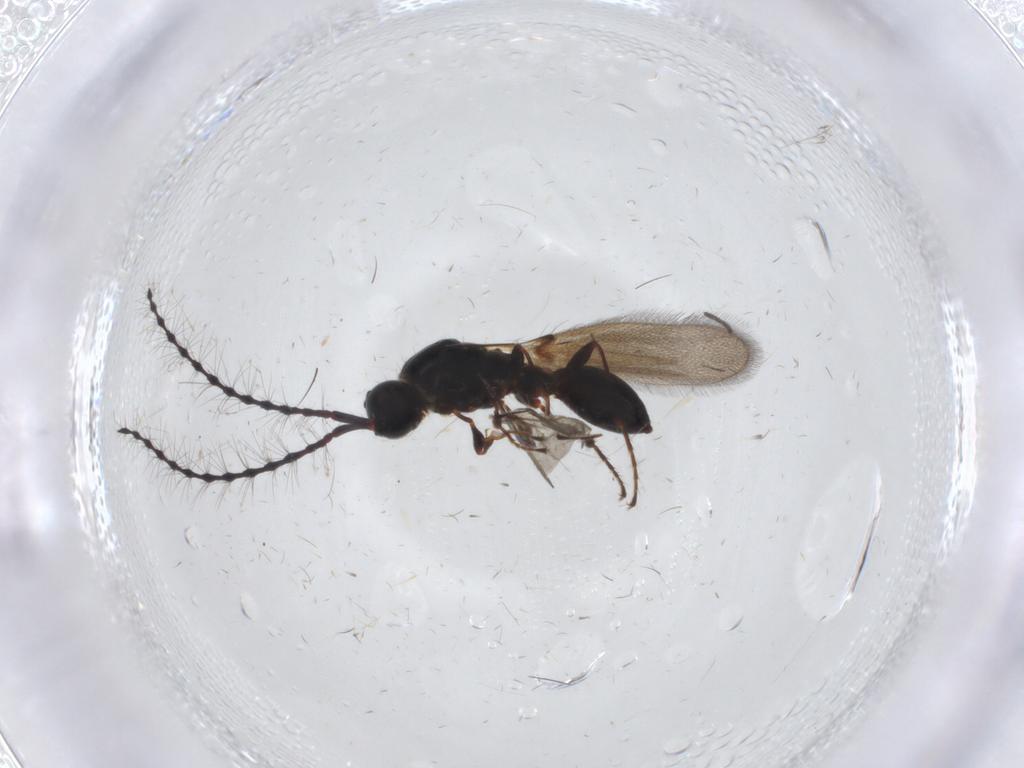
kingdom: Animalia
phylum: Arthropoda
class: Insecta
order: Hymenoptera
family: Diapriidae
